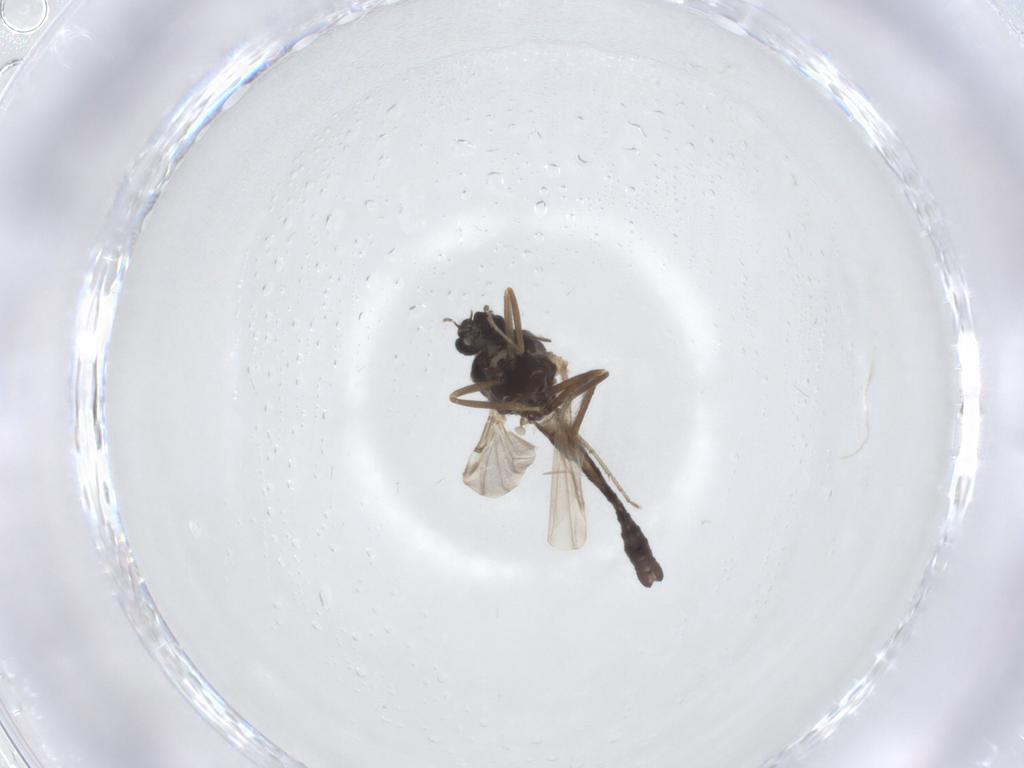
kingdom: Animalia
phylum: Arthropoda
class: Insecta
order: Diptera
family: Ceratopogonidae
